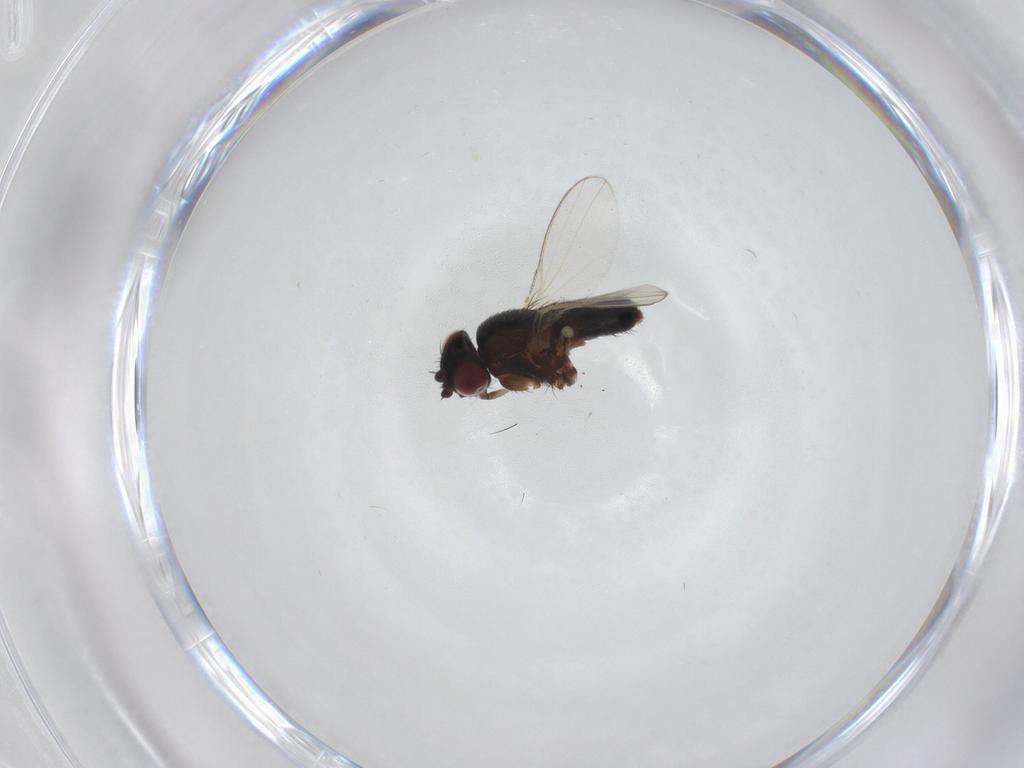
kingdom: Animalia
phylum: Arthropoda
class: Insecta
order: Diptera
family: Milichiidae
